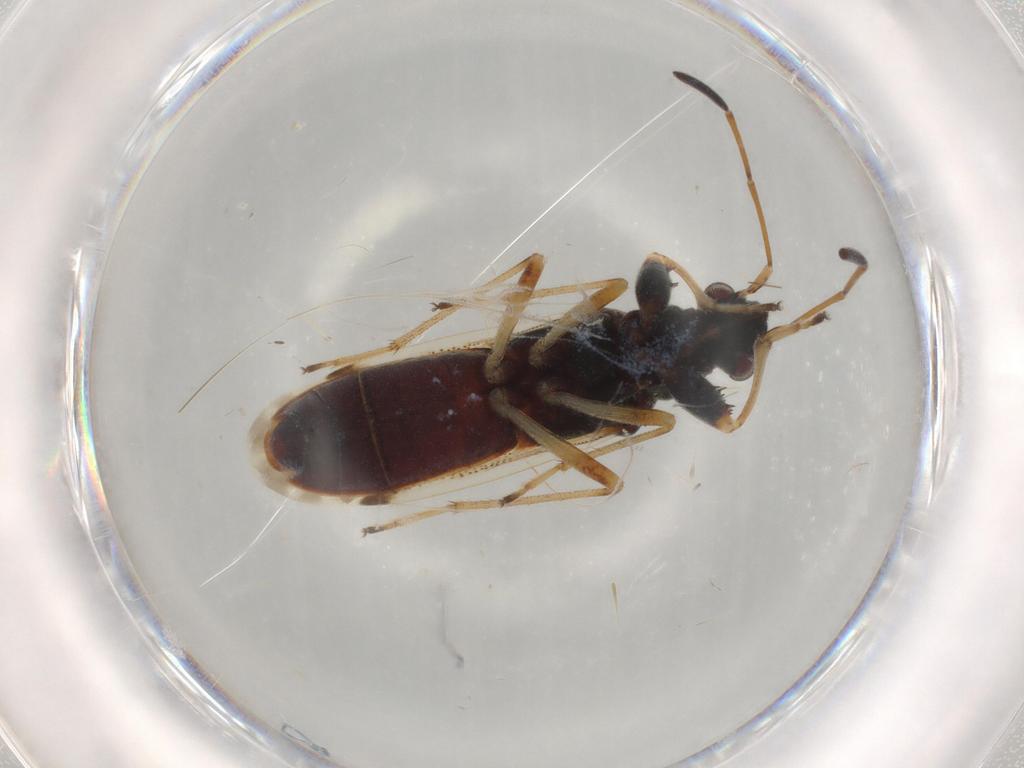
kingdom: Animalia
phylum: Arthropoda
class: Insecta
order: Hemiptera
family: Rhyparochromidae
